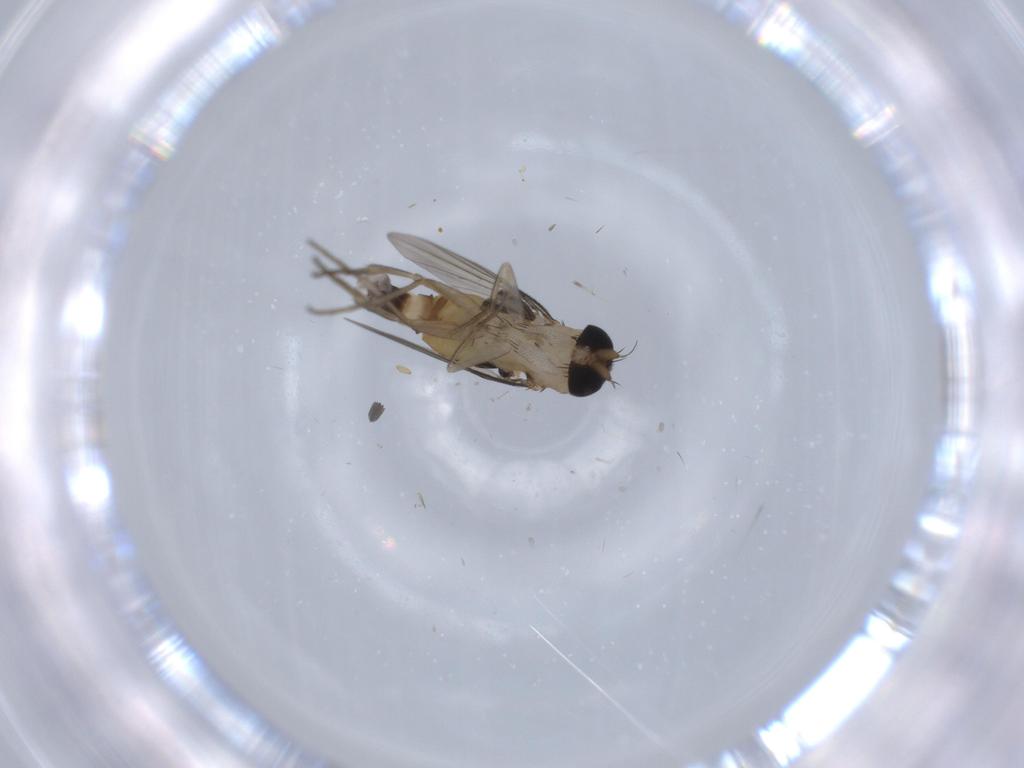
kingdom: Animalia
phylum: Arthropoda
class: Insecta
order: Diptera
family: Phoridae
